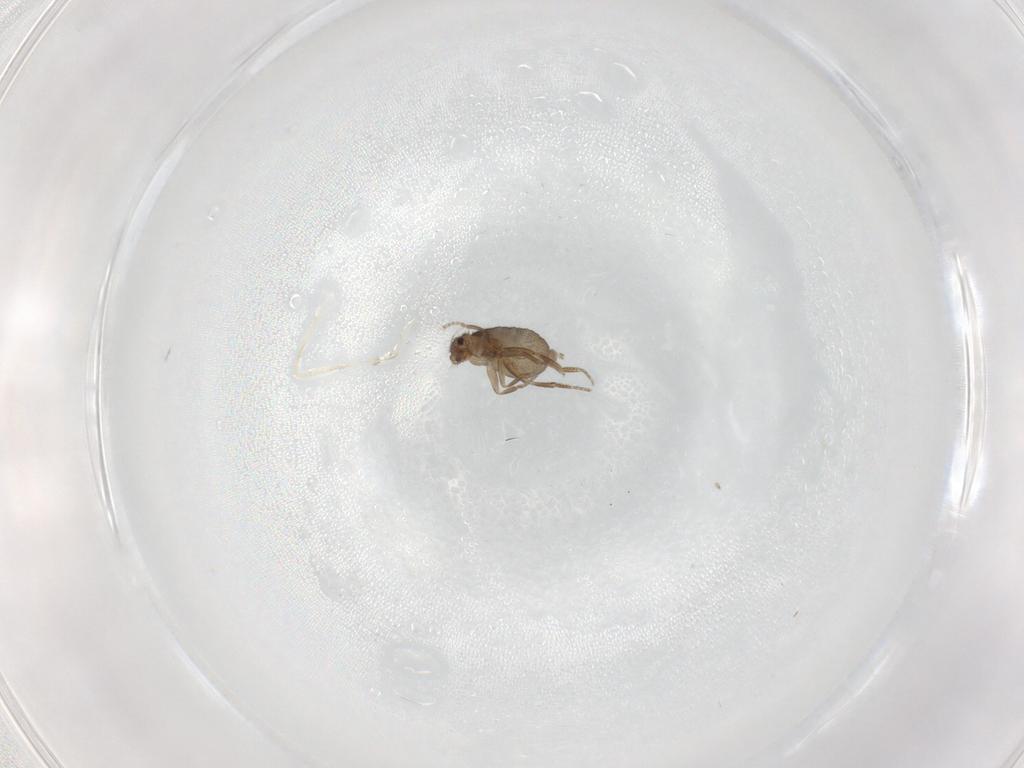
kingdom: Animalia
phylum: Arthropoda
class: Insecta
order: Diptera
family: Phoridae
